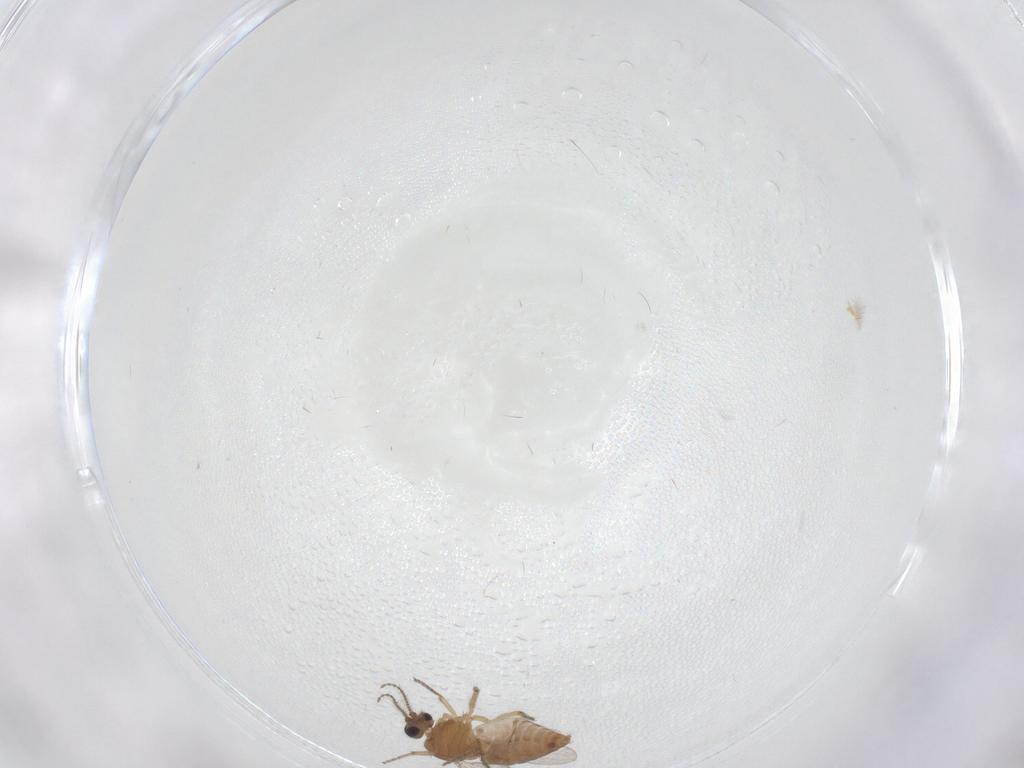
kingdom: Animalia
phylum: Arthropoda
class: Insecta
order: Diptera
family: Ceratopogonidae
